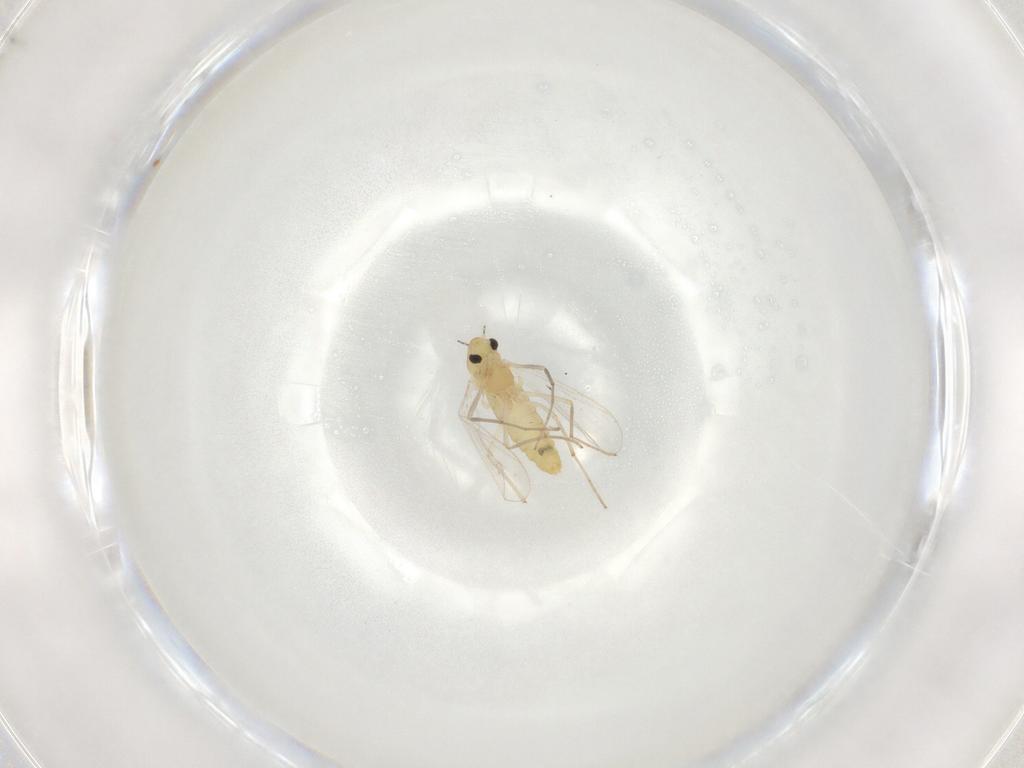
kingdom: Animalia
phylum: Arthropoda
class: Insecta
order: Diptera
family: Chironomidae
